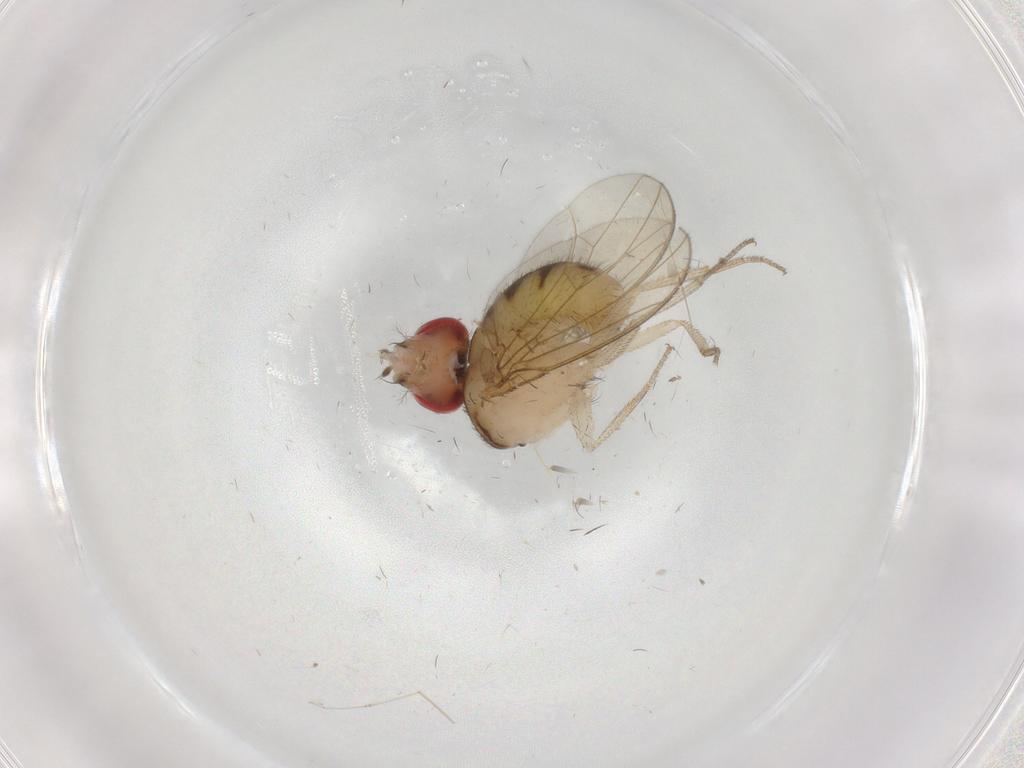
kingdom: Animalia
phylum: Arthropoda
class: Insecta
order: Diptera
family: Drosophilidae
